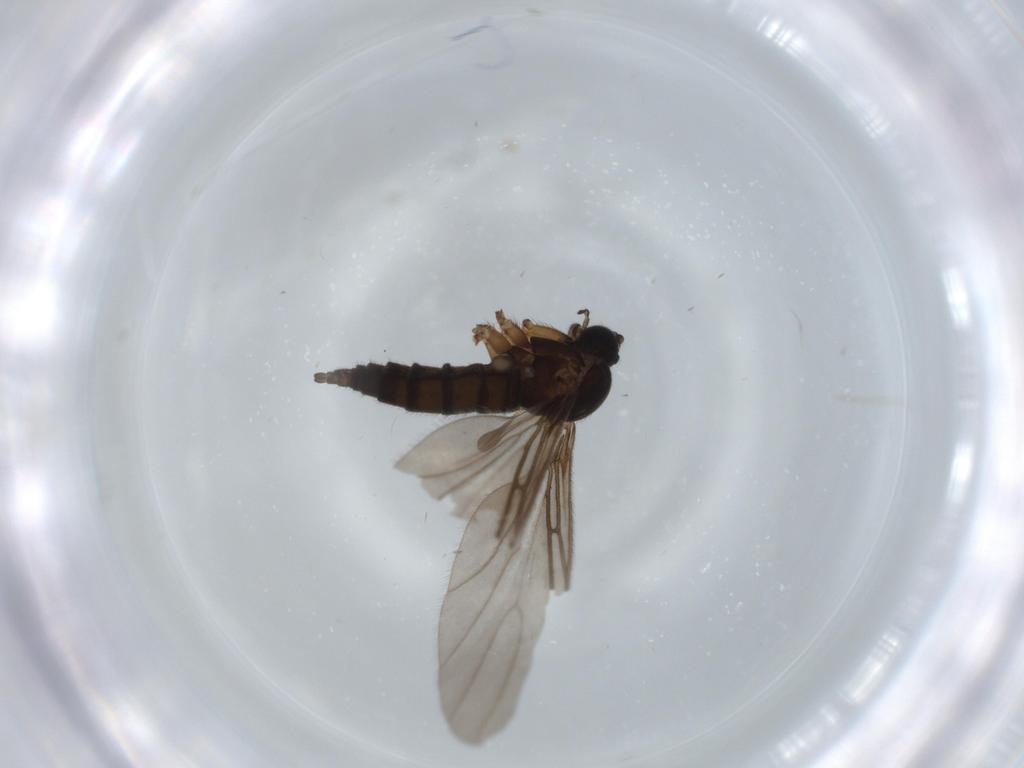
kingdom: Animalia
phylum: Arthropoda
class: Insecta
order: Diptera
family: Sciaridae
